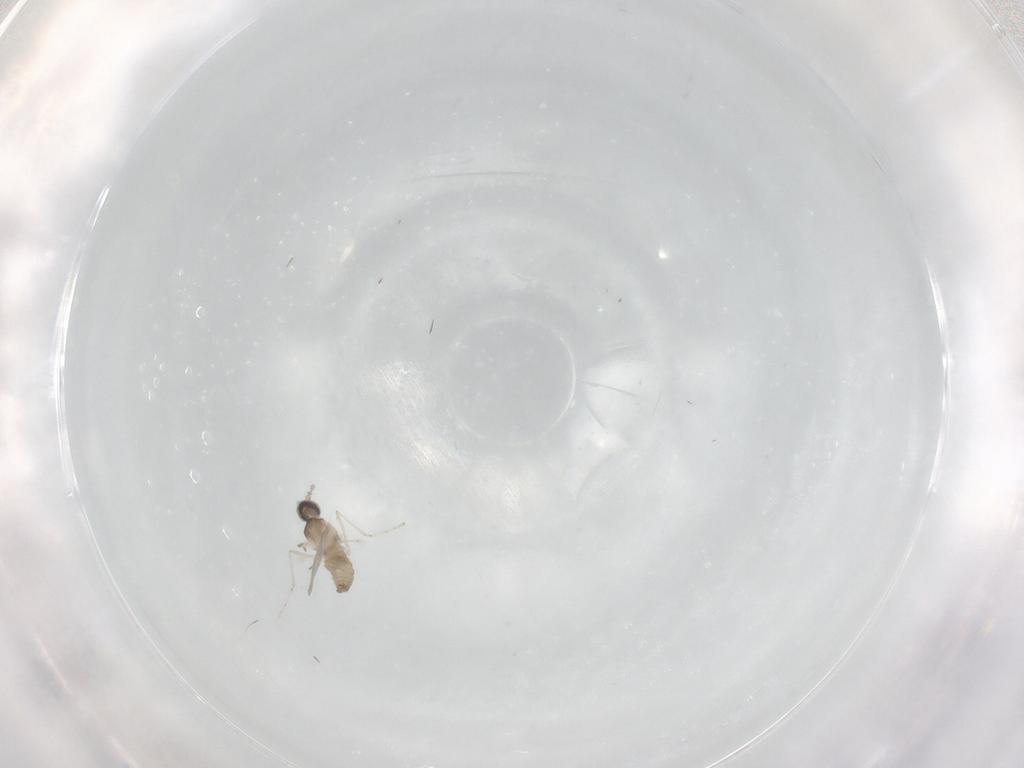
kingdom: Animalia
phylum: Arthropoda
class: Insecta
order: Diptera
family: Cecidomyiidae
